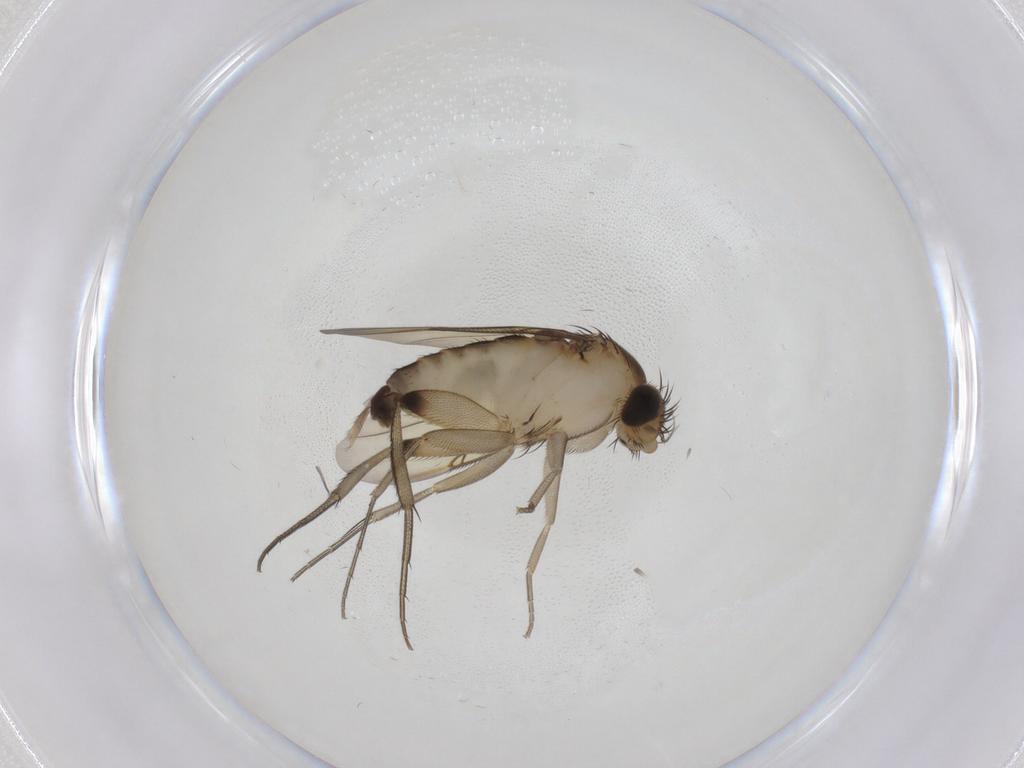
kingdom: Animalia
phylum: Arthropoda
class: Insecta
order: Diptera
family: Phoridae
